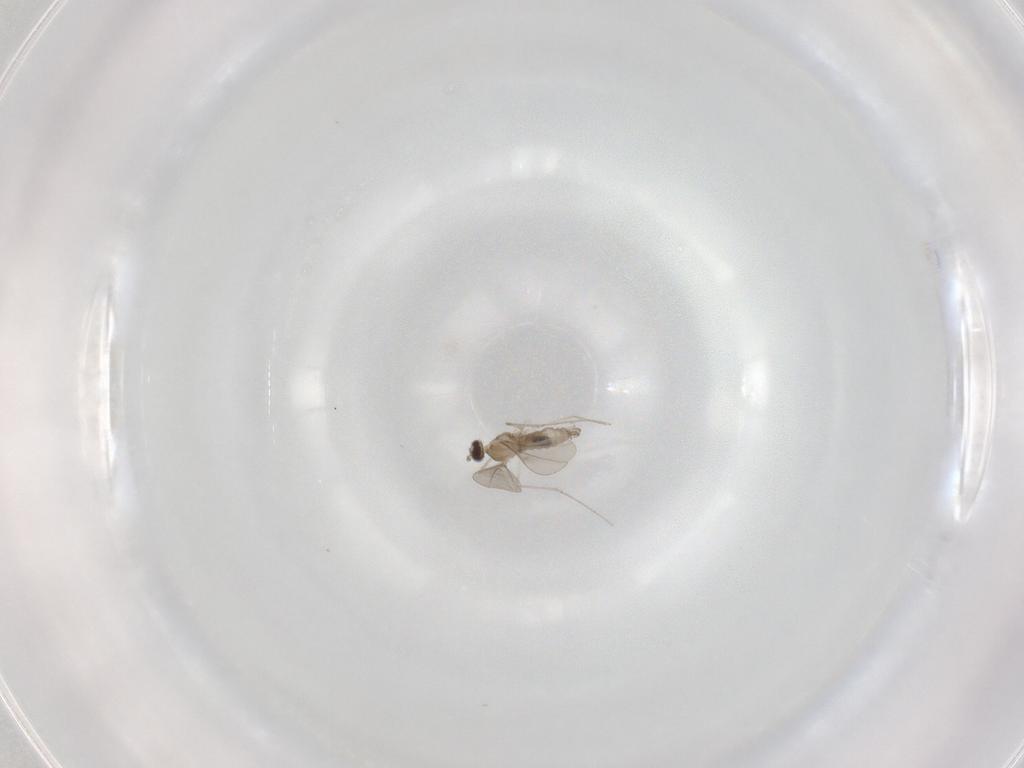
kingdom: Animalia
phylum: Arthropoda
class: Insecta
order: Diptera
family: Cecidomyiidae
